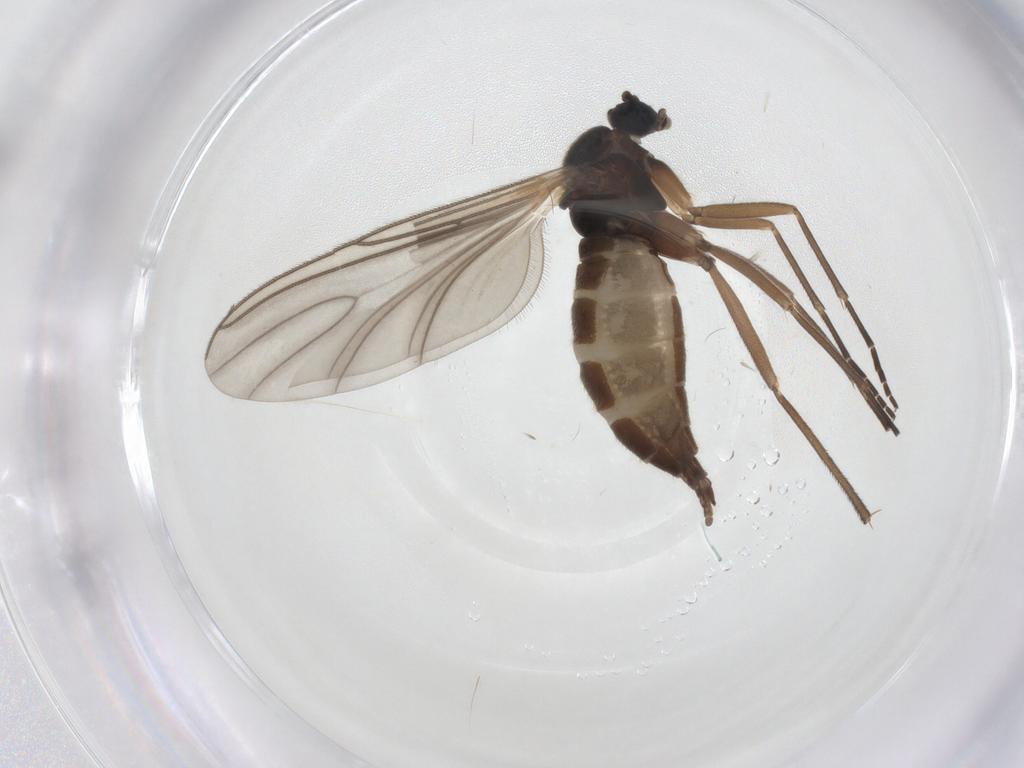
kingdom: Animalia
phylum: Arthropoda
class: Insecta
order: Diptera
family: Sciaridae
